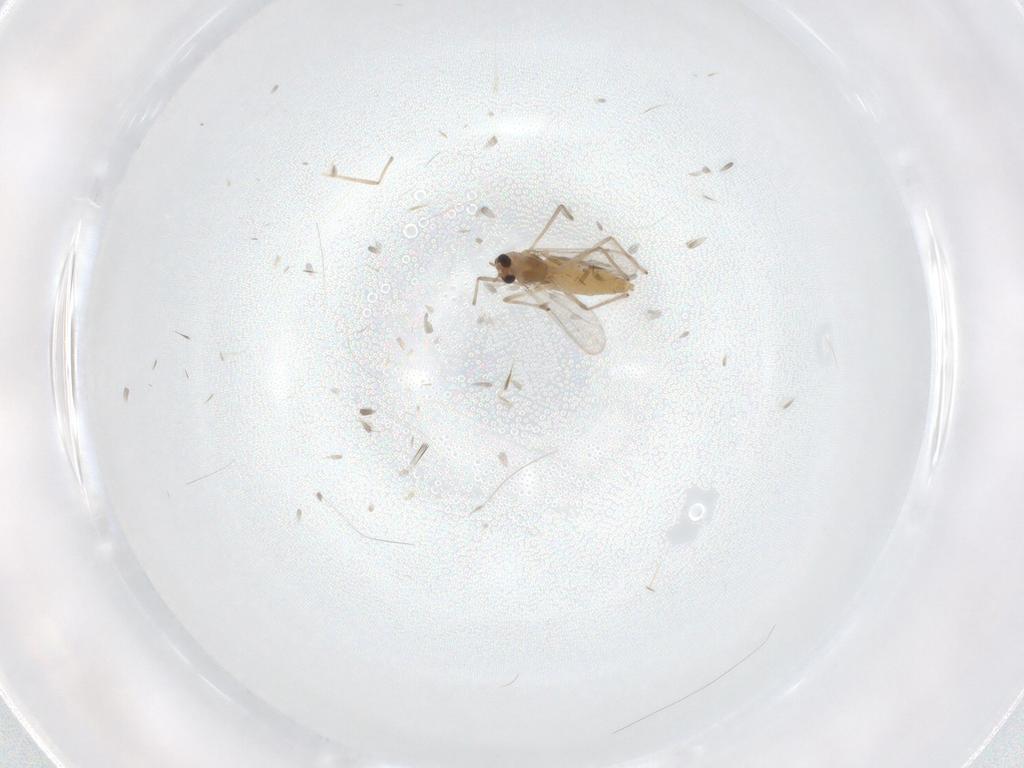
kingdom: Animalia
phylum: Arthropoda
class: Insecta
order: Diptera
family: Chironomidae
